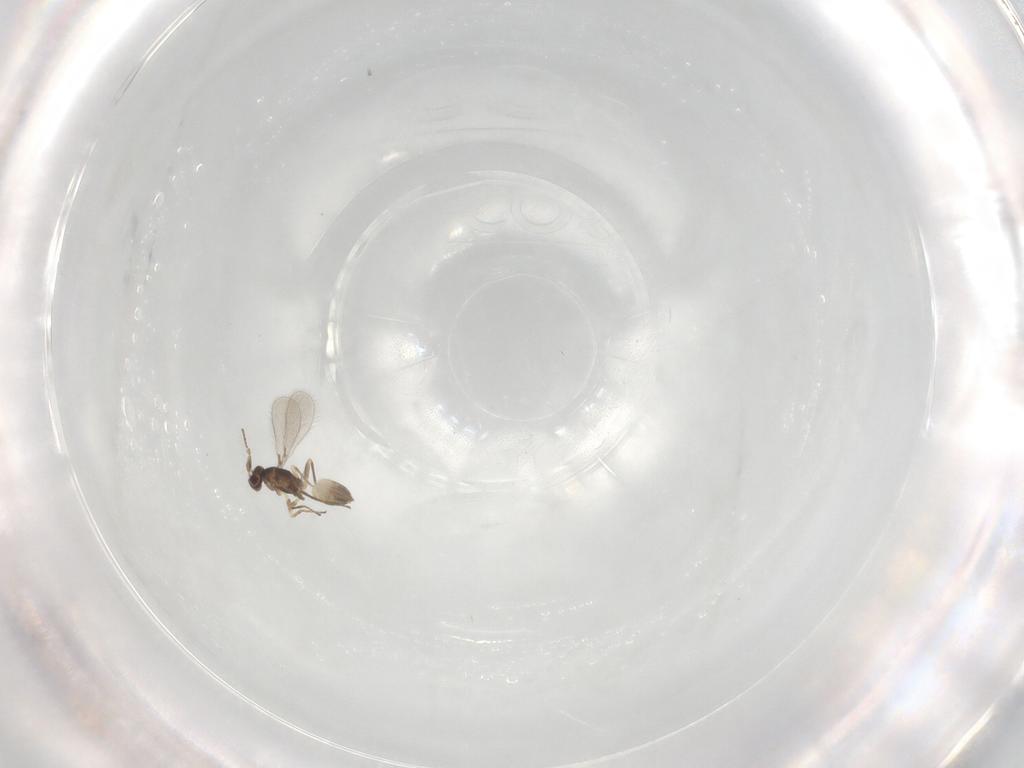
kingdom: Animalia
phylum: Arthropoda
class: Insecta
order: Hymenoptera
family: Mymaridae
